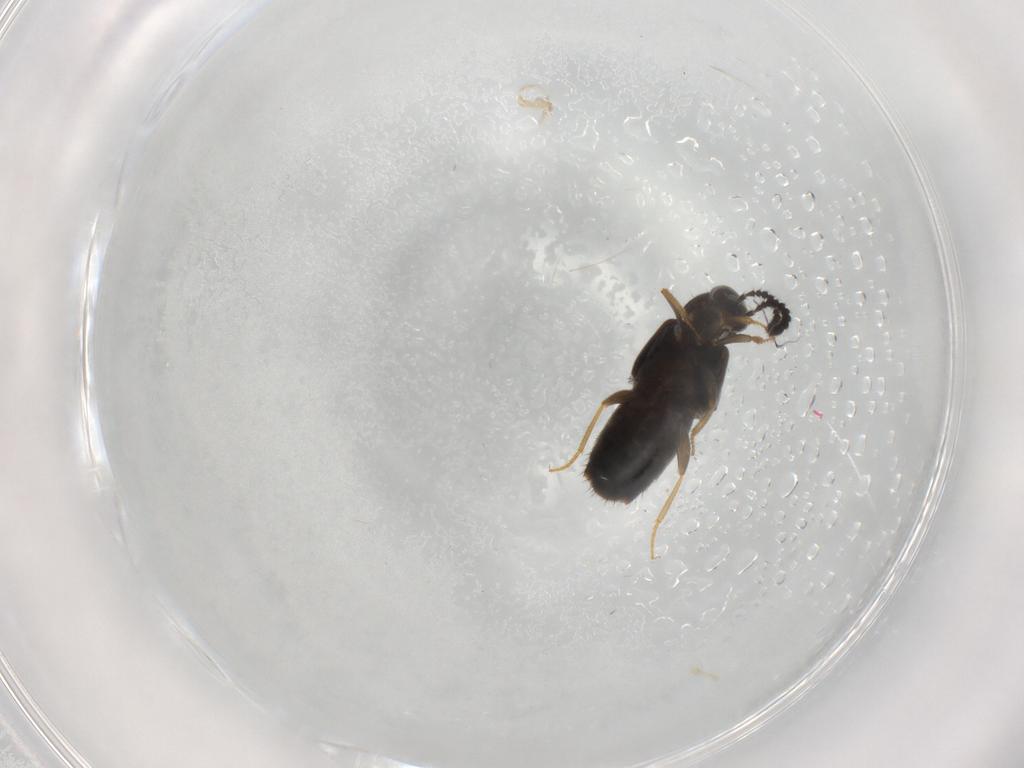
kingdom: Animalia
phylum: Arthropoda
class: Insecta
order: Coleoptera
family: Staphylinidae
